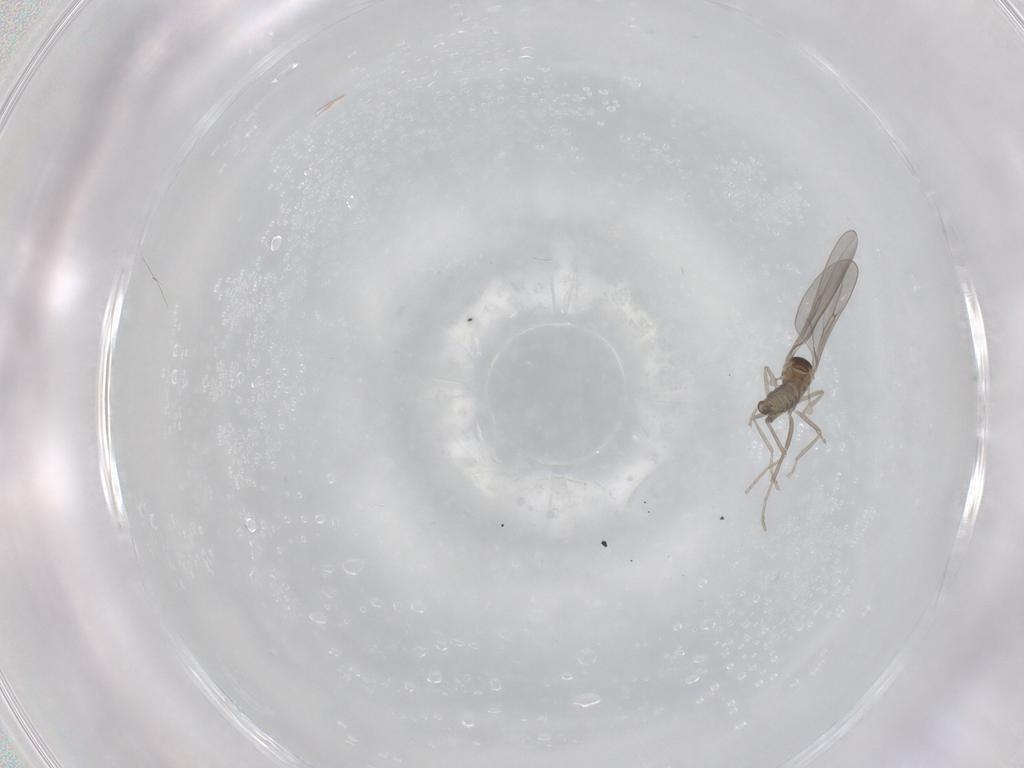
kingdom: Animalia
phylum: Arthropoda
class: Insecta
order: Diptera
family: Cecidomyiidae
